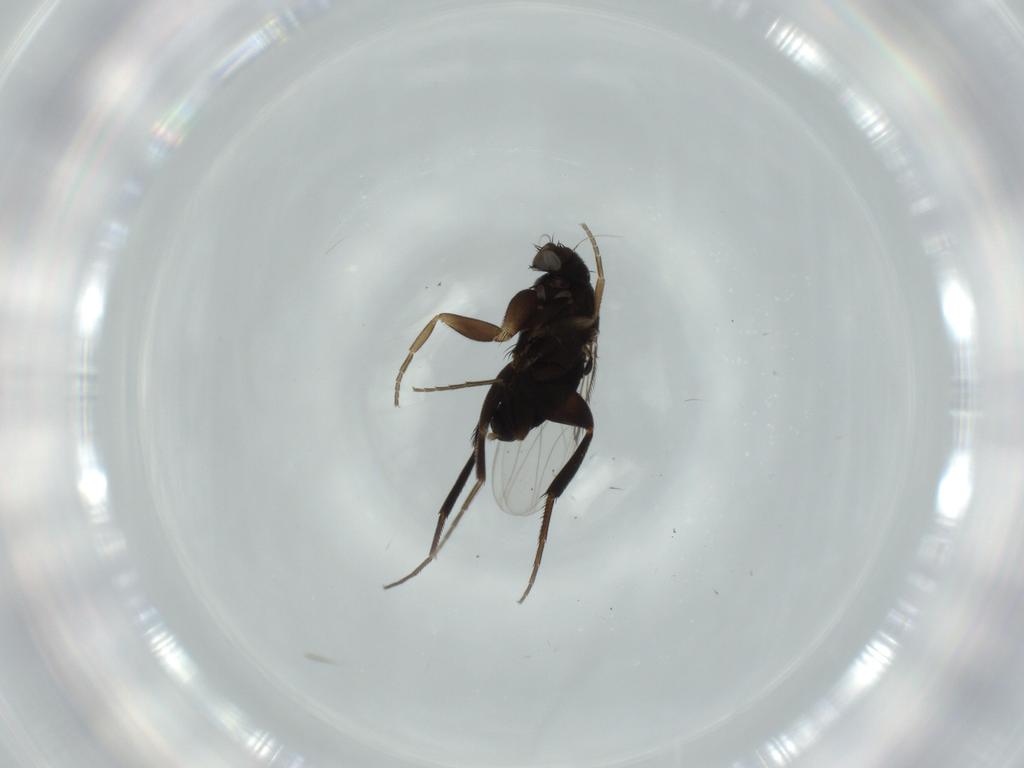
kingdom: Animalia
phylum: Arthropoda
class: Insecta
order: Diptera
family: Phoridae
